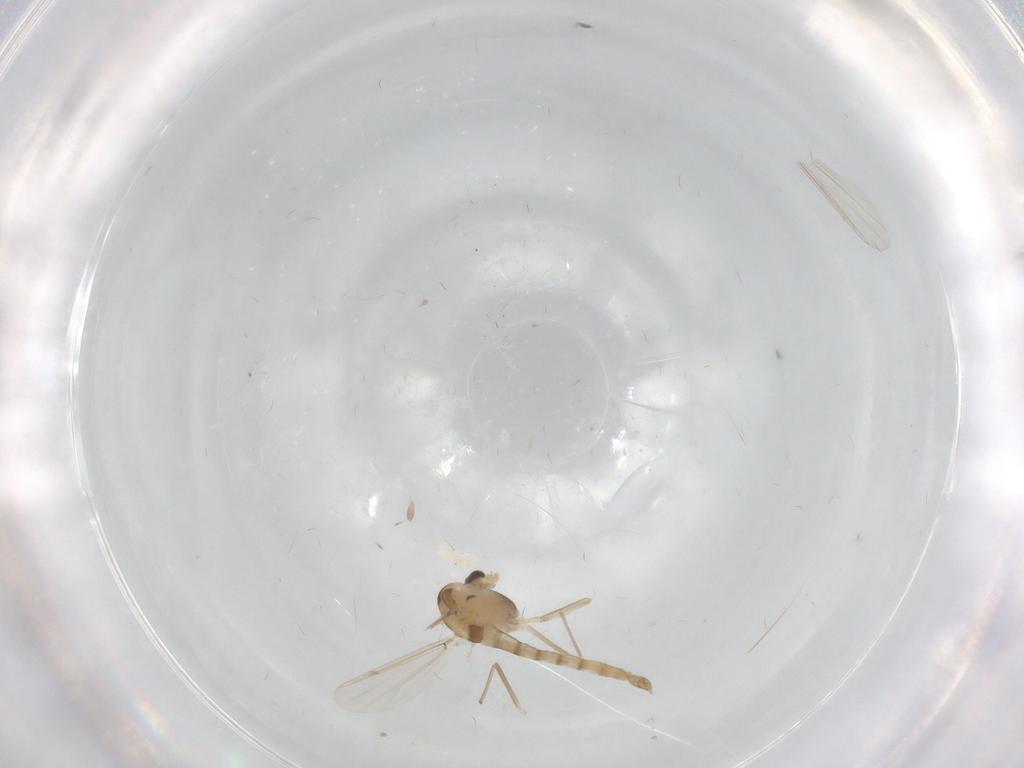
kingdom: Animalia
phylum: Arthropoda
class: Insecta
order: Diptera
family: Chironomidae
